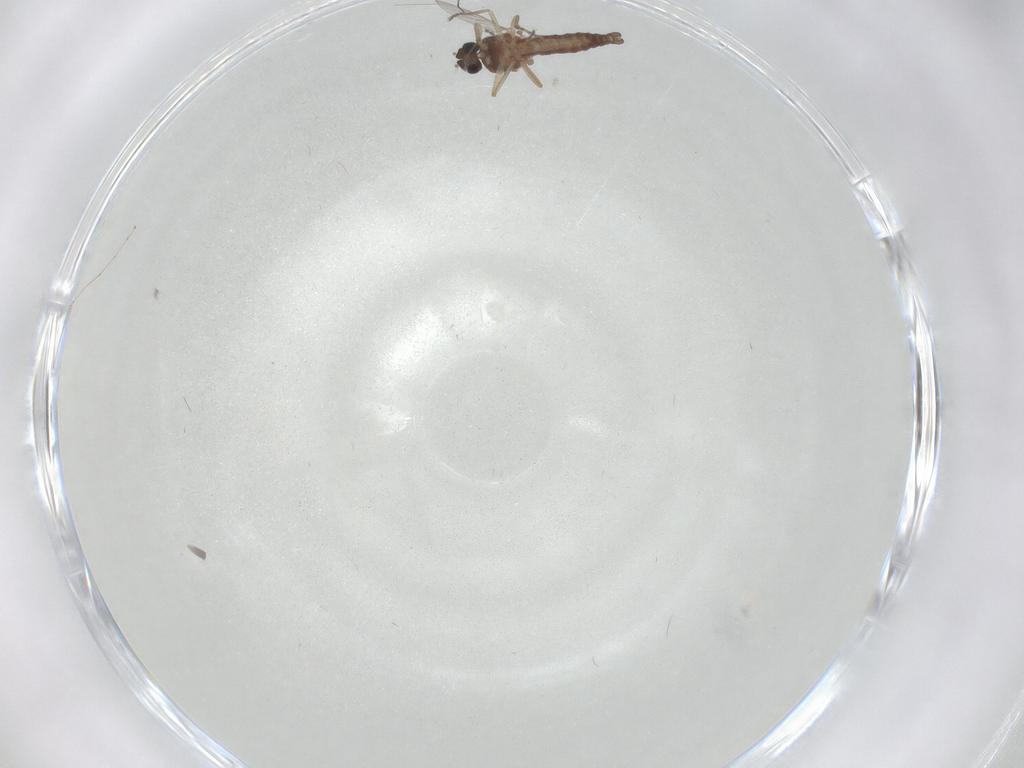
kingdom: Animalia
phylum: Arthropoda
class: Insecta
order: Diptera
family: Ceratopogonidae
